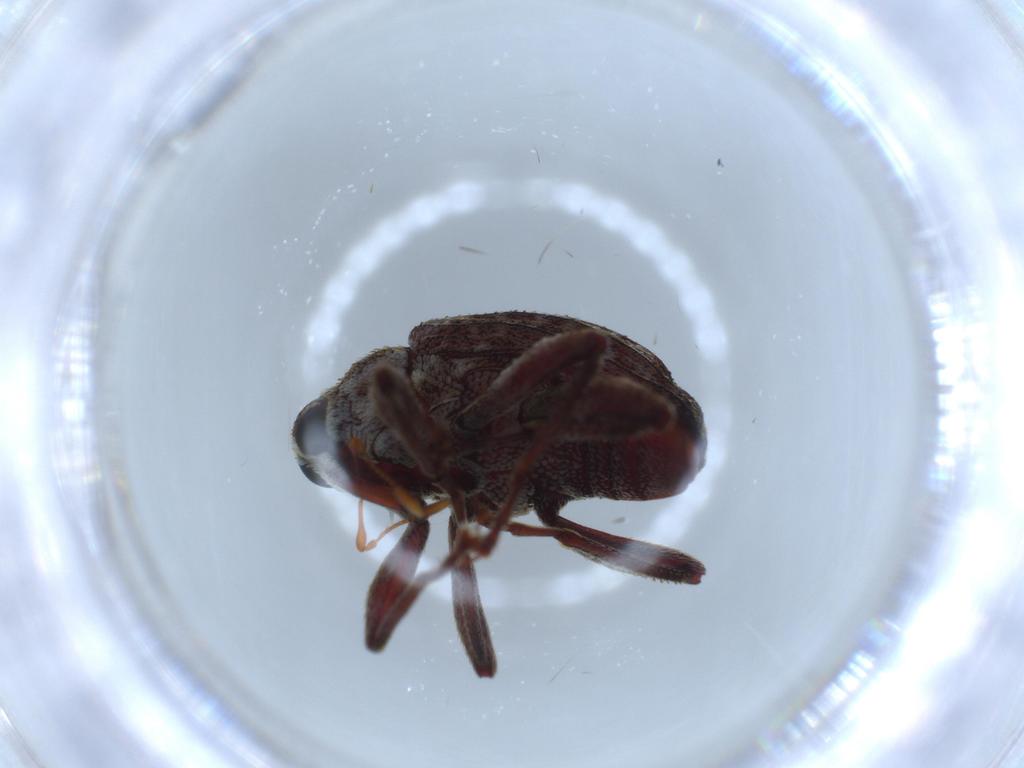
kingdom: Animalia
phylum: Arthropoda
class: Insecta
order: Coleoptera
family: Curculionidae
